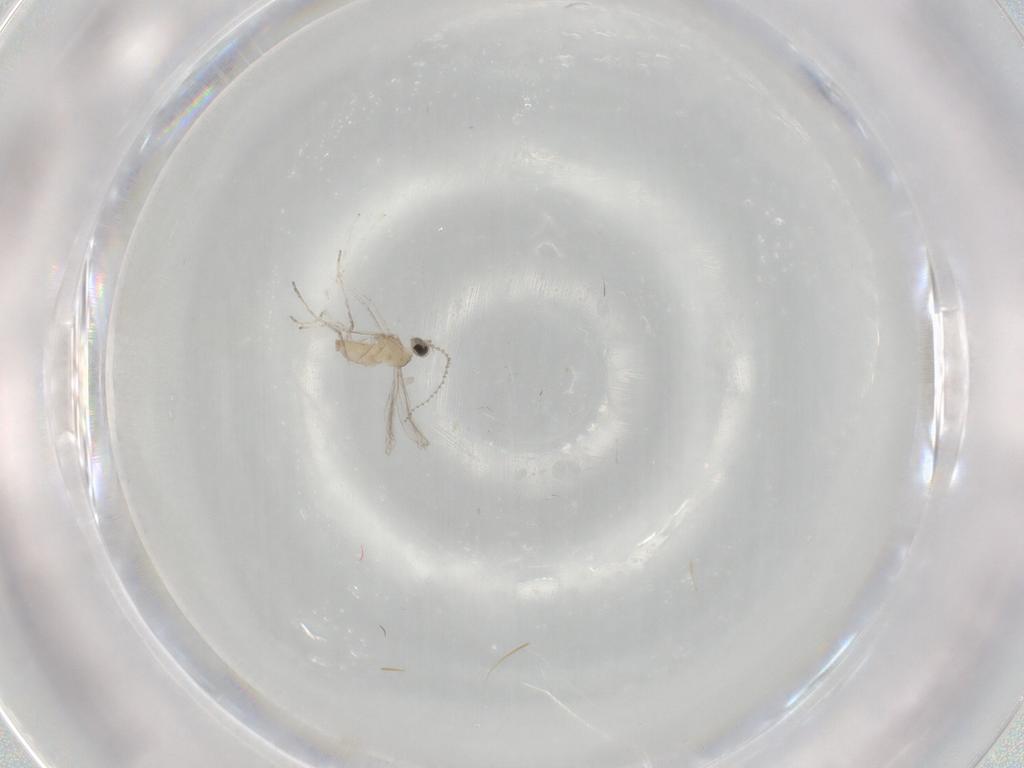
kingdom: Animalia
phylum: Arthropoda
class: Insecta
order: Diptera
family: Cecidomyiidae
